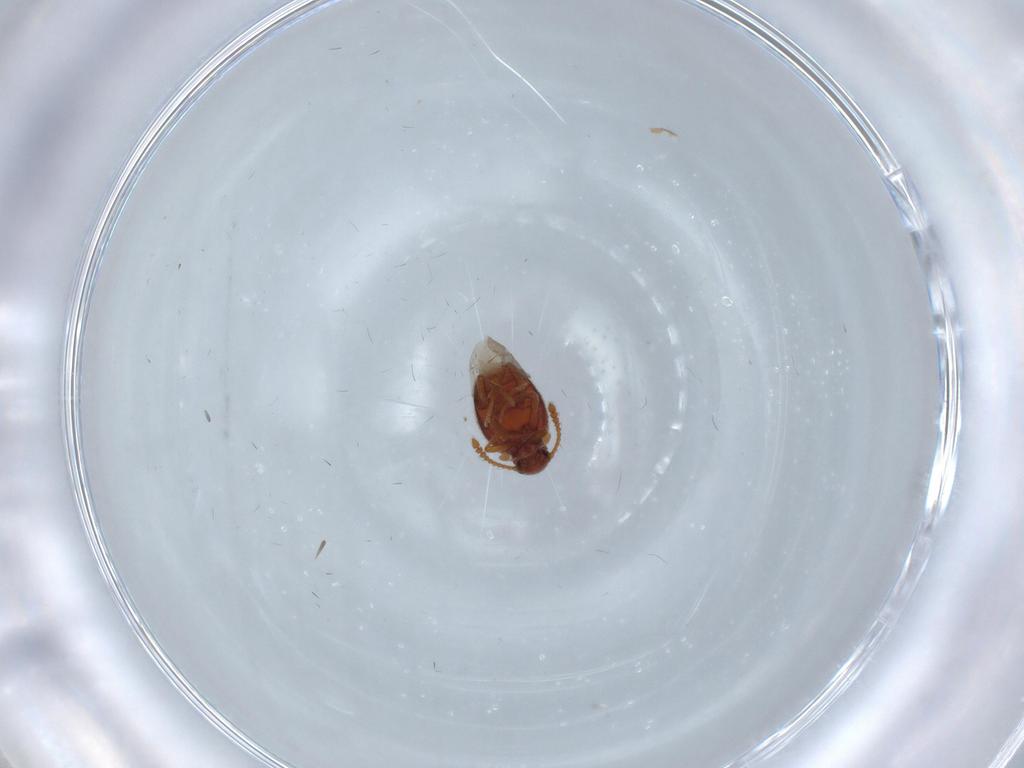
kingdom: Animalia
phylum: Arthropoda
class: Insecta
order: Coleoptera
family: Aderidae
